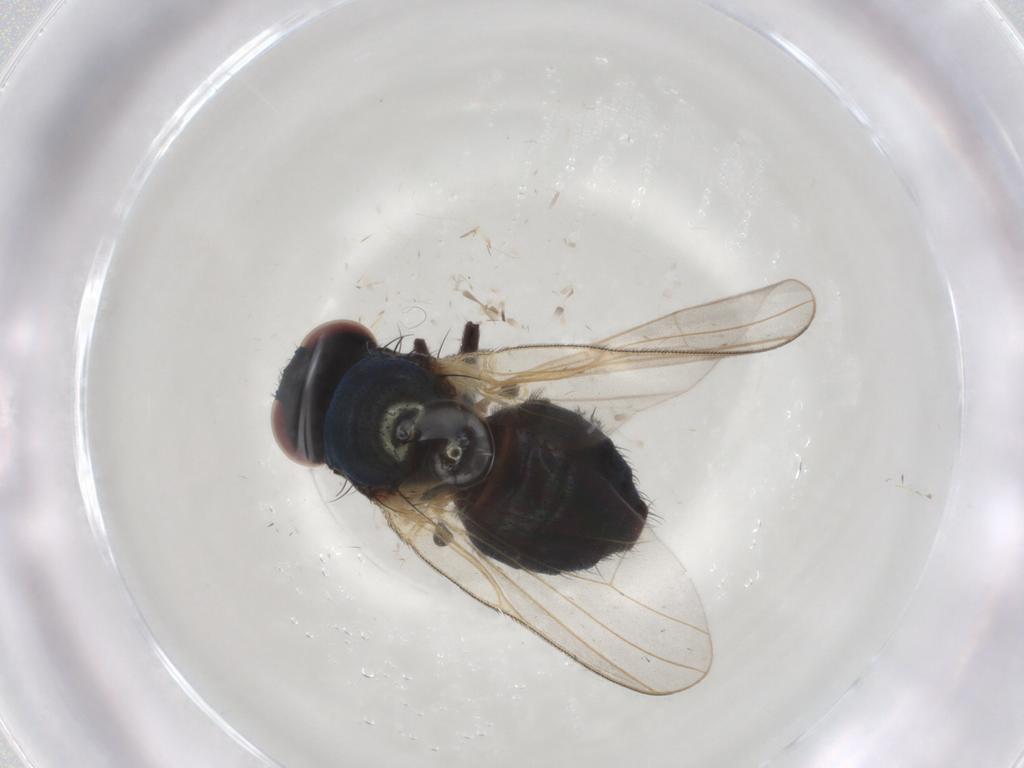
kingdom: Animalia
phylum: Arthropoda
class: Insecta
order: Diptera
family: Lonchaeidae
